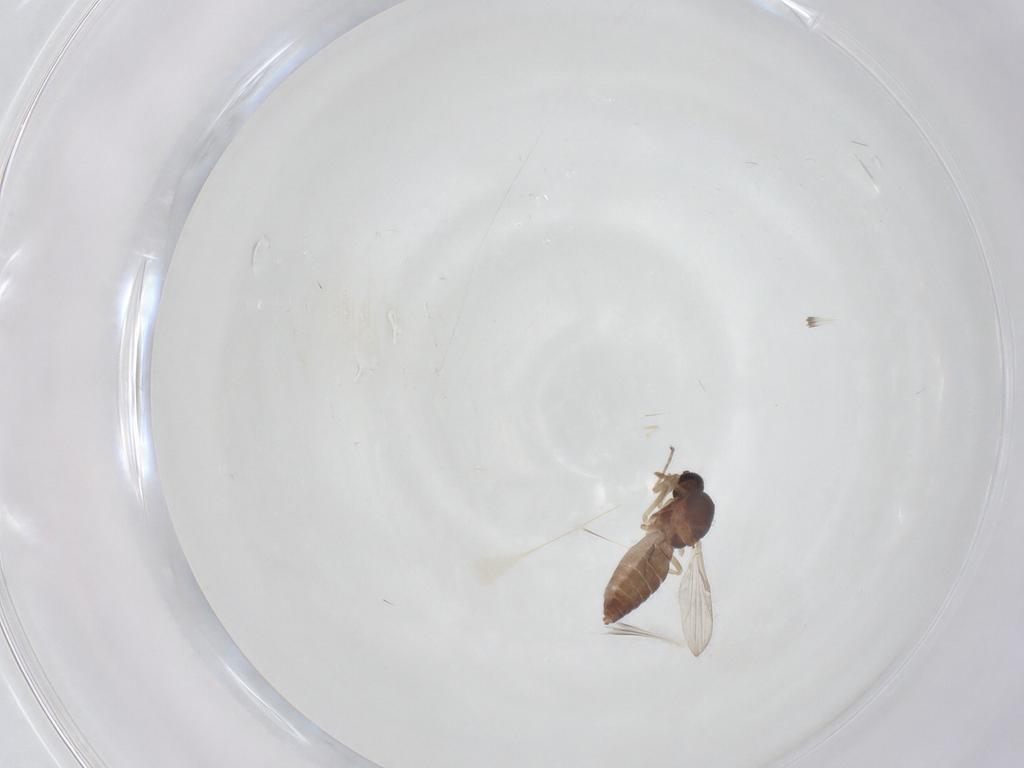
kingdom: Animalia
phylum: Arthropoda
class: Insecta
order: Diptera
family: Ceratopogonidae
